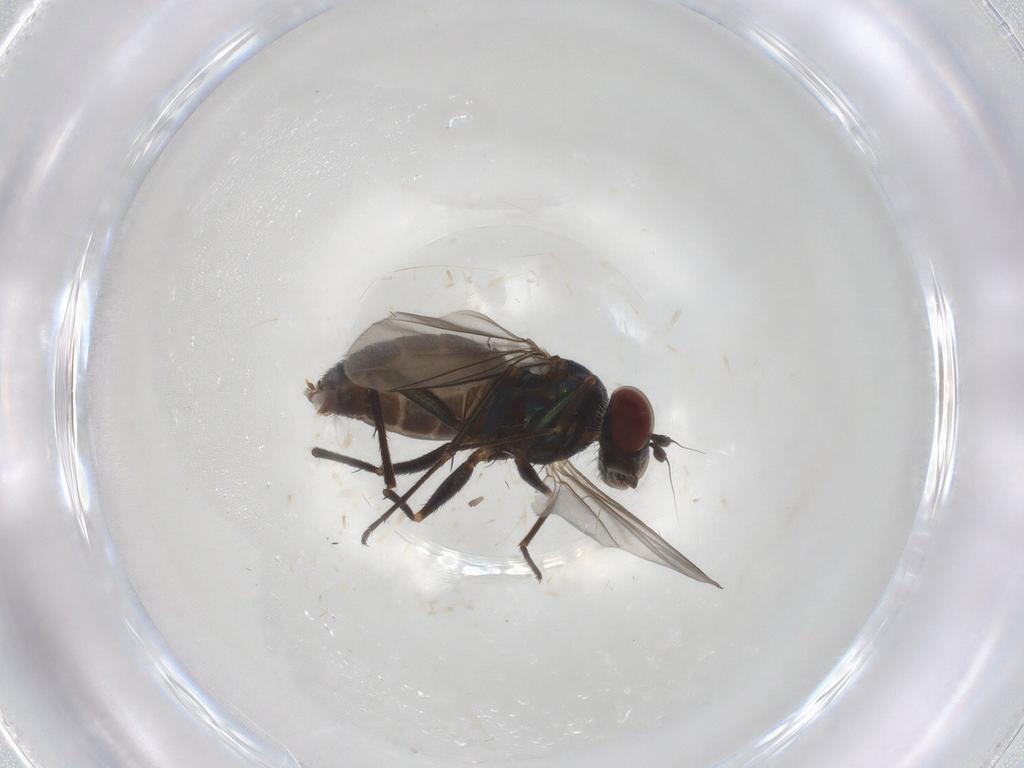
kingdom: Animalia
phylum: Arthropoda
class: Insecta
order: Diptera
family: Dolichopodidae
